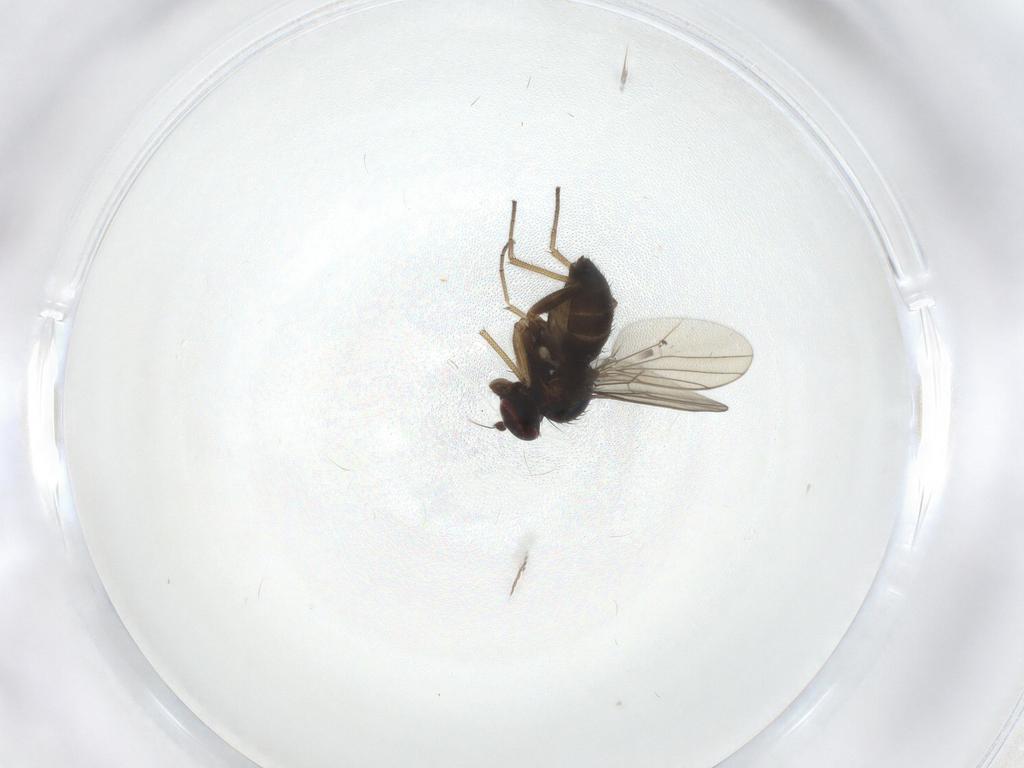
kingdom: Animalia
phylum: Arthropoda
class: Insecta
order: Diptera
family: Dolichopodidae
